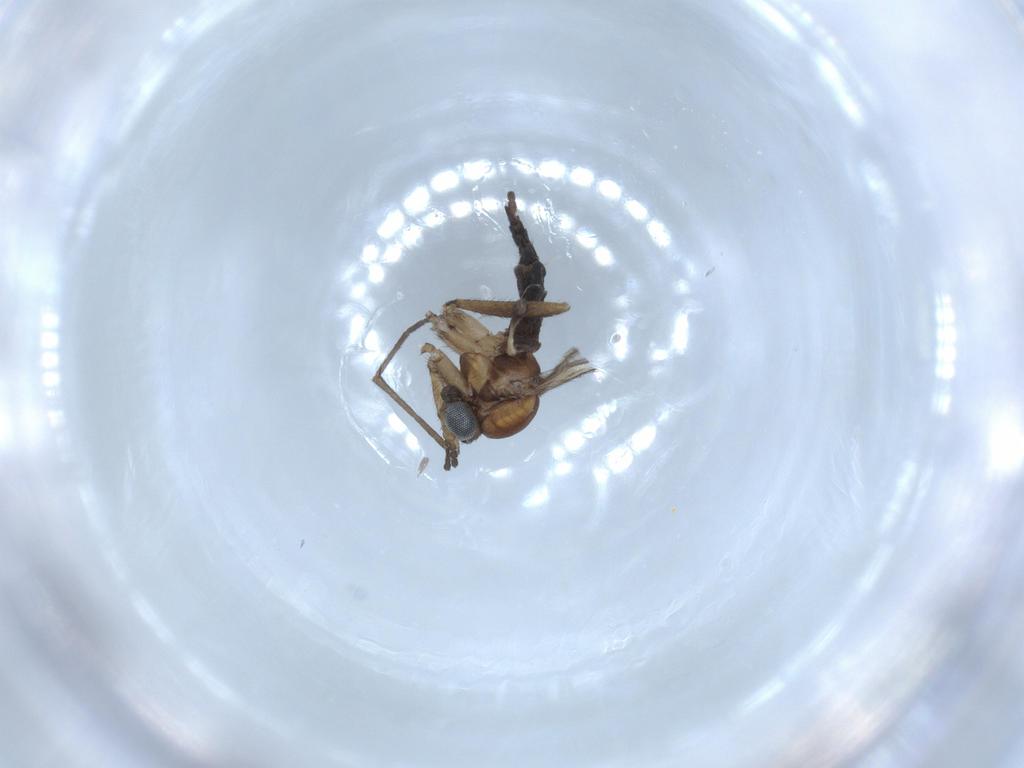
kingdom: Animalia
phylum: Arthropoda
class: Insecta
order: Diptera
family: Sciaridae
